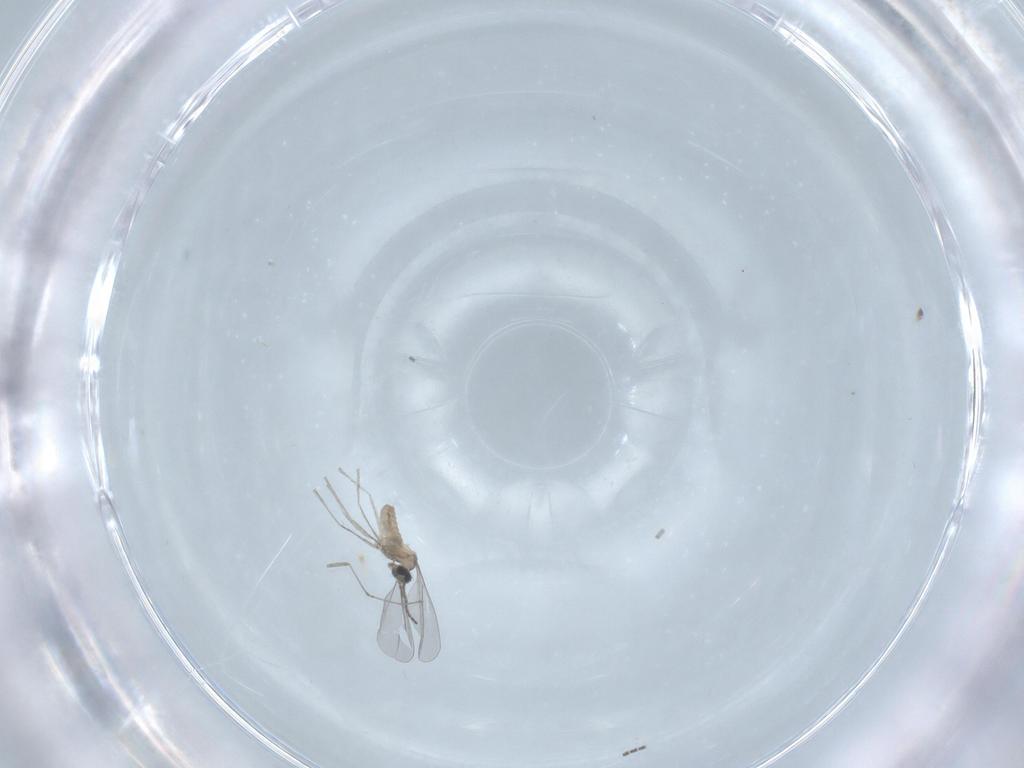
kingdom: Animalia
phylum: Arthropoda
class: Insecta
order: Diptera
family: Cecidomyiidae
